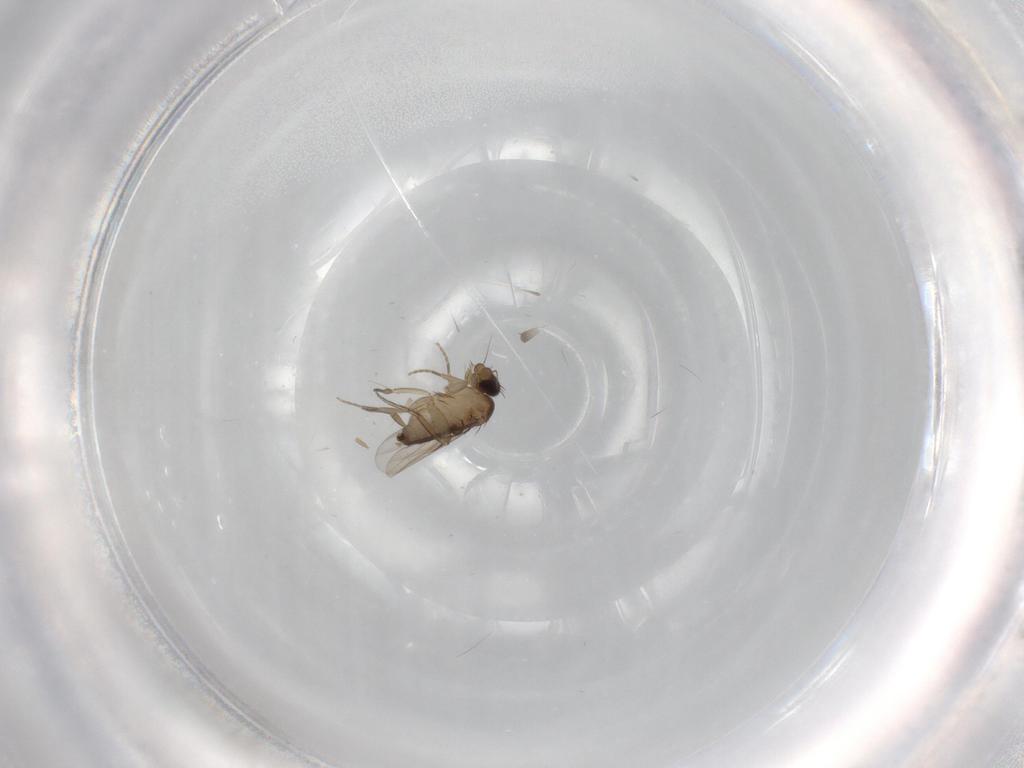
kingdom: Animalia
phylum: Arthropoda
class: Insecta
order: Diptera
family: Phoridae
